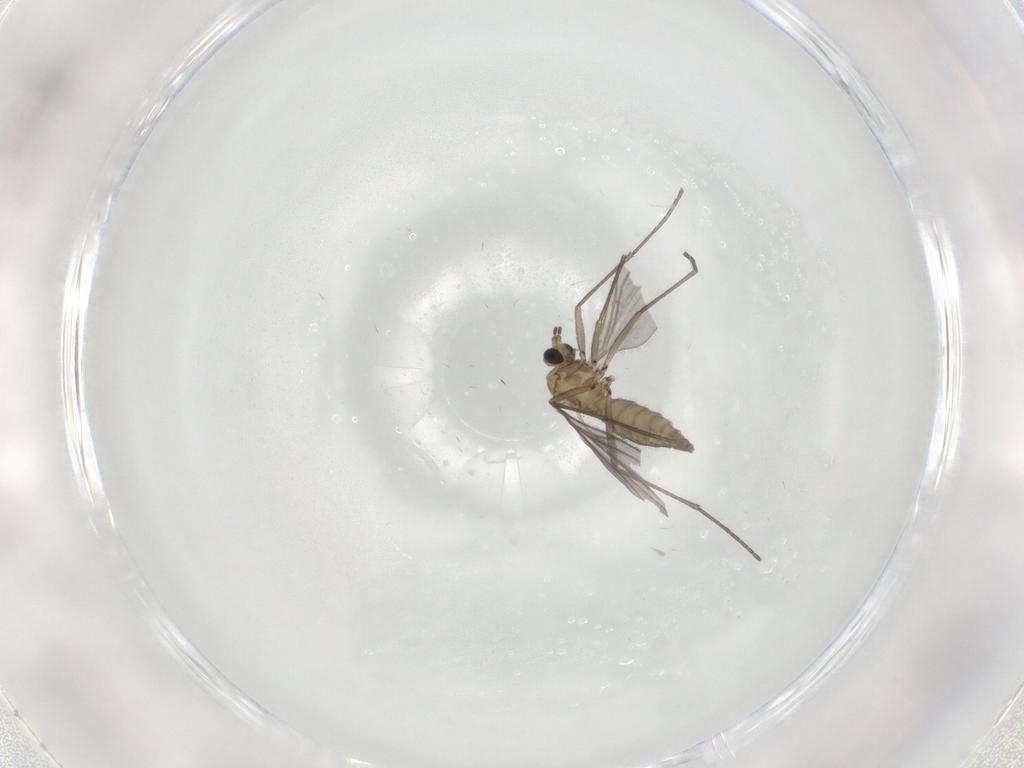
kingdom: Animalia
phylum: Arthropoda
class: Insecta
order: Diptera
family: Sciaridae
